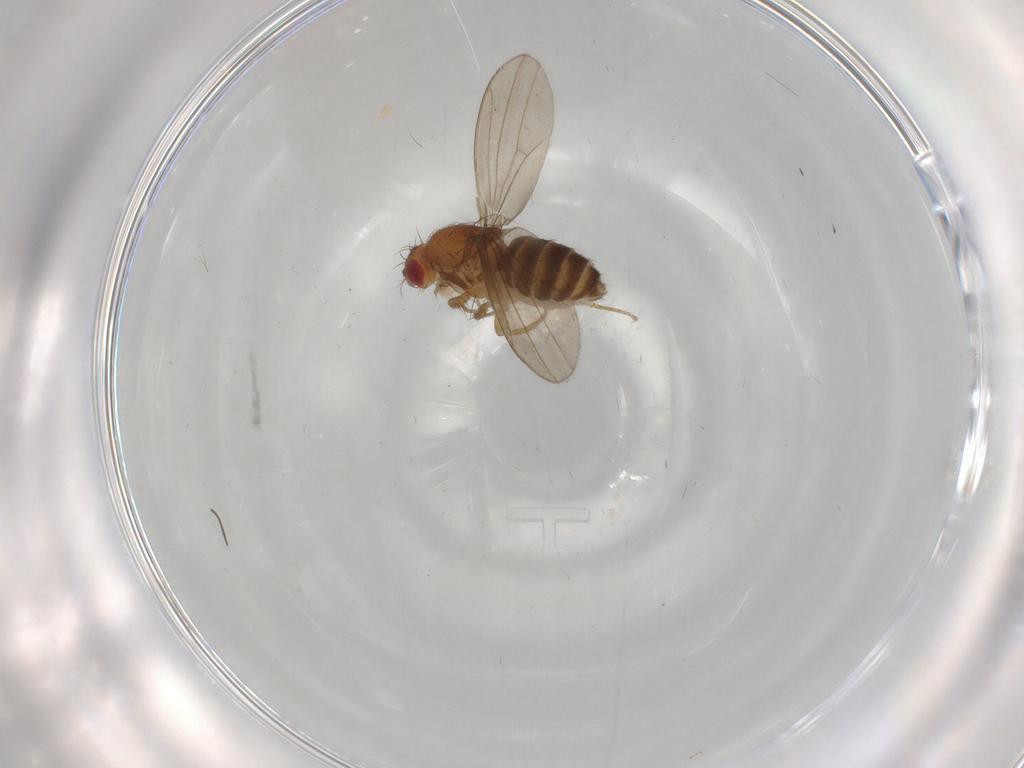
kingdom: Animalia
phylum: Arthropoda
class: Insecta
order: Diptera
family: Drosophilidae
